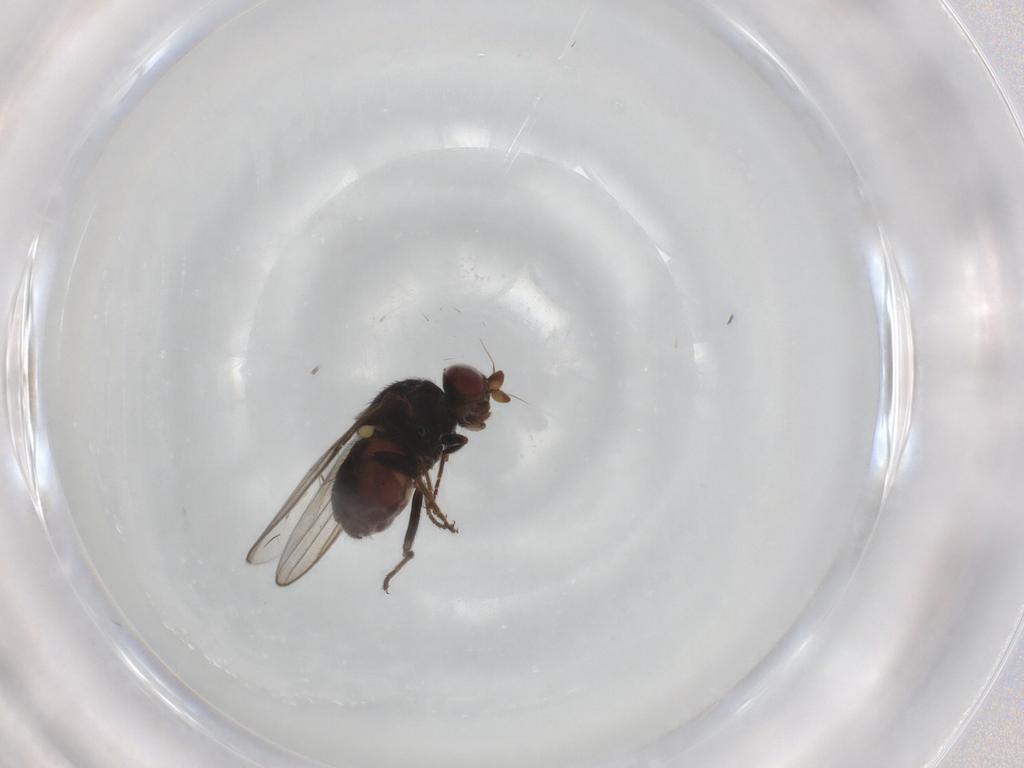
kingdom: Animalia
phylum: Arthropoda
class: Insecta
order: Diptera
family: Chloropidae
